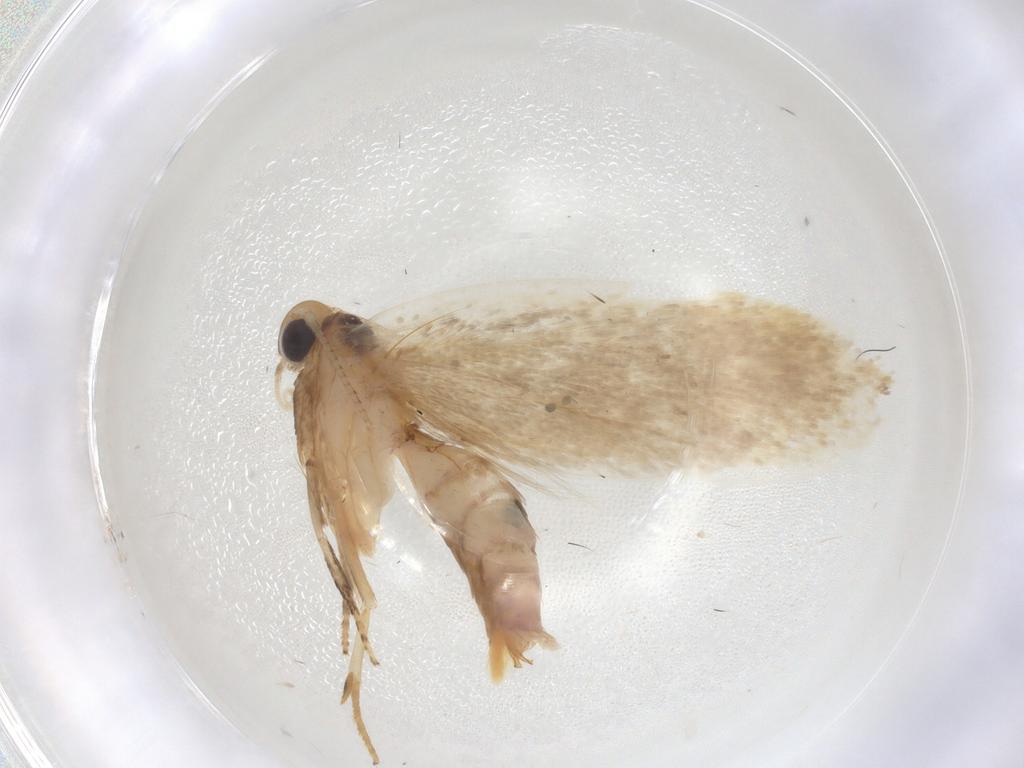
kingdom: Animalia
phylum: Arthropoda
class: Insecta
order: Lepidoptera
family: Depressariidae
